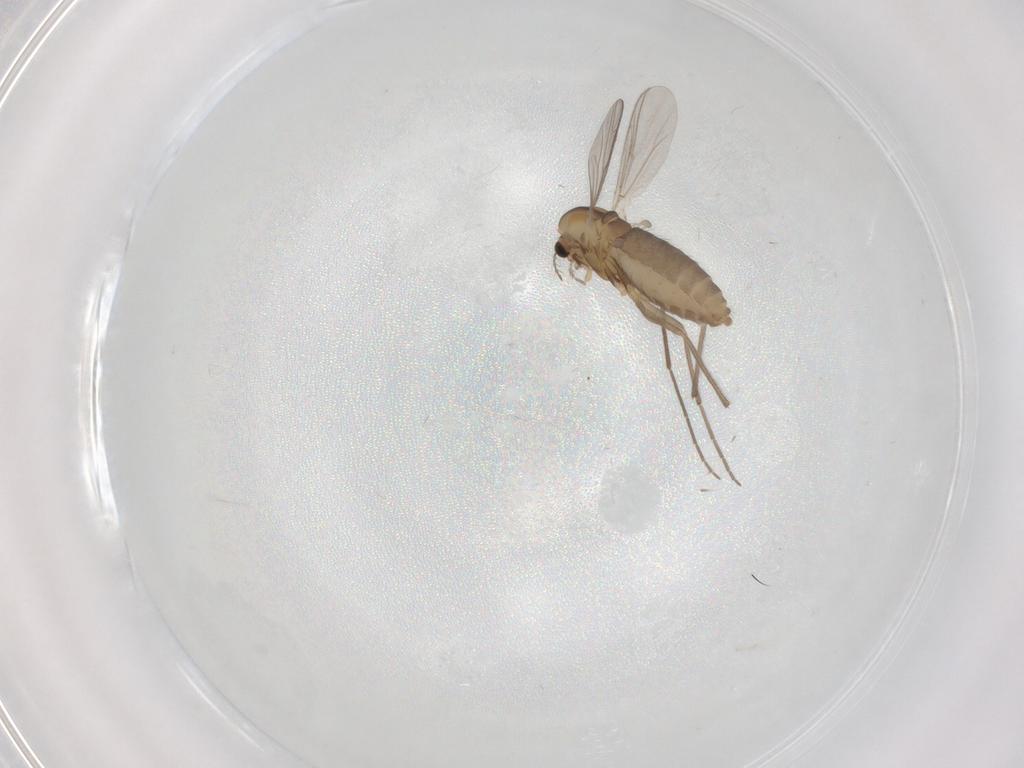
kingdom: Animalia
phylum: Arthropoda
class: Insecta
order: Diptera
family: Chironomidae
